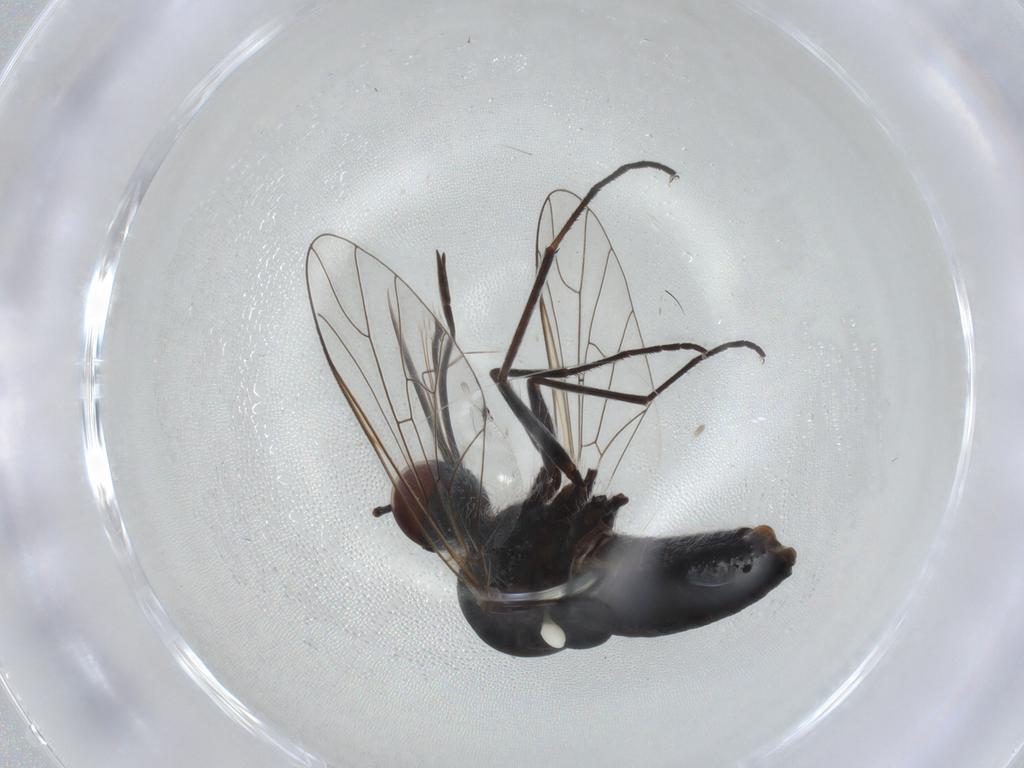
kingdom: Animalia
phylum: Arthropoda
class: Insecta
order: Diptera
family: Bombyliidae
